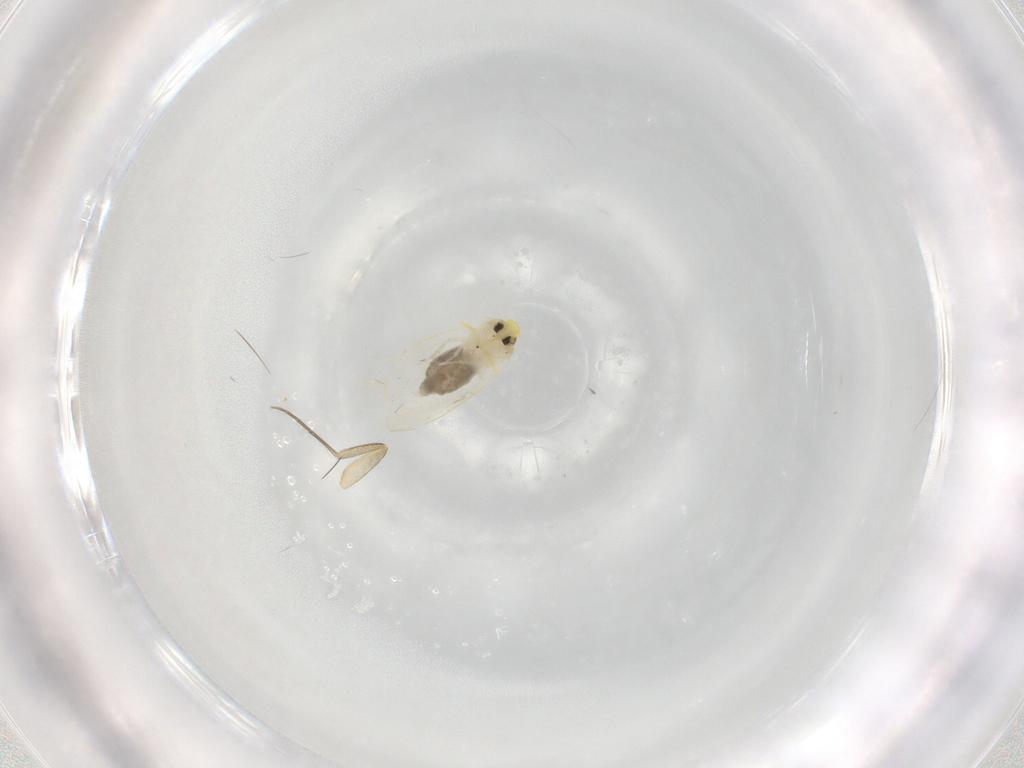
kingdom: Animalia
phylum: Arthropoda
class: Insecta
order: Hemiptera
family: Aleyrodidae
